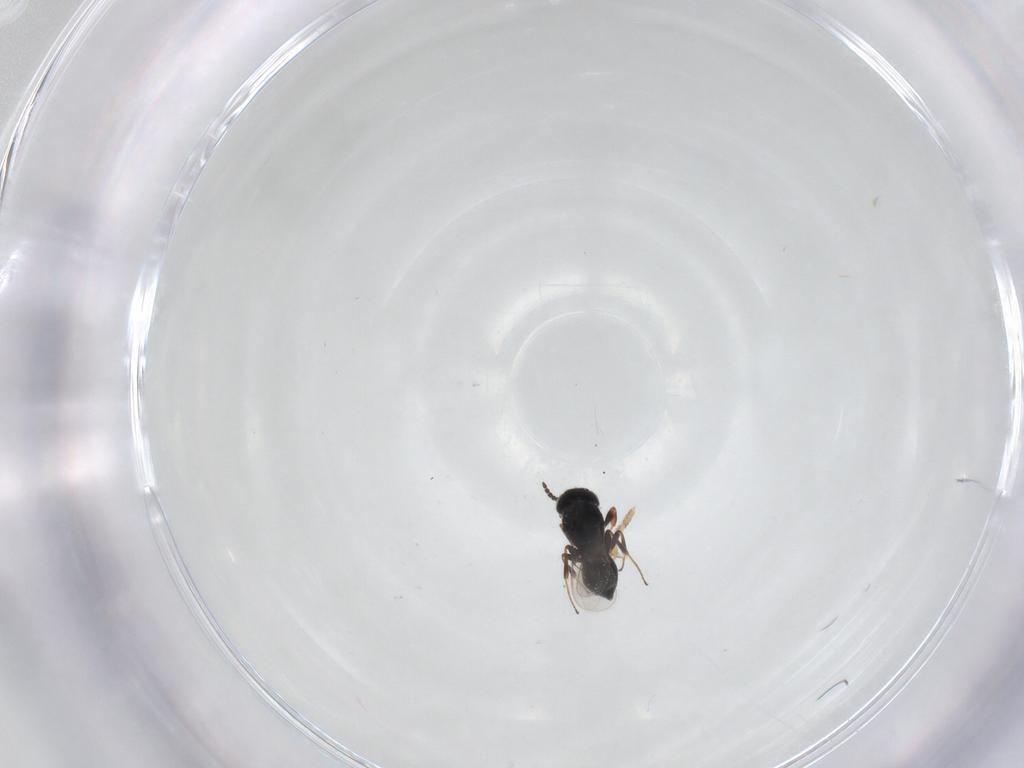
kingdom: Animalia
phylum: Arthropoda
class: Insecta
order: Hymenoptera
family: Scelionidae
